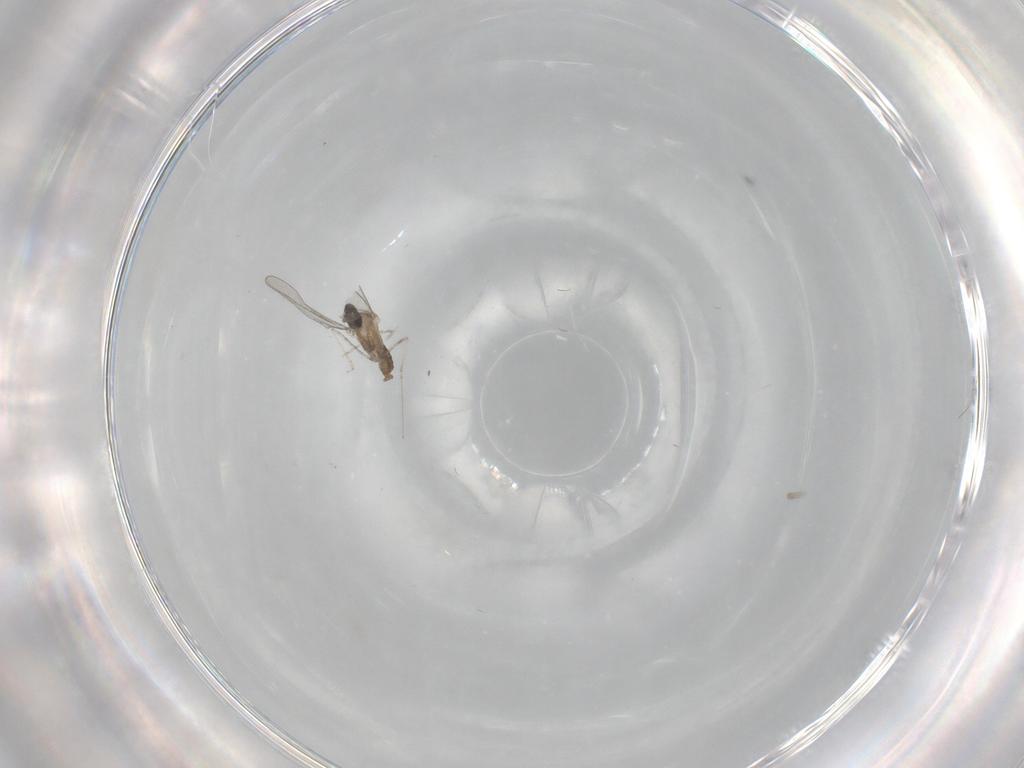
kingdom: Animalia
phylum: Arthropoda
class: Insecta
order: Diptera
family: Cecidomyiidae
